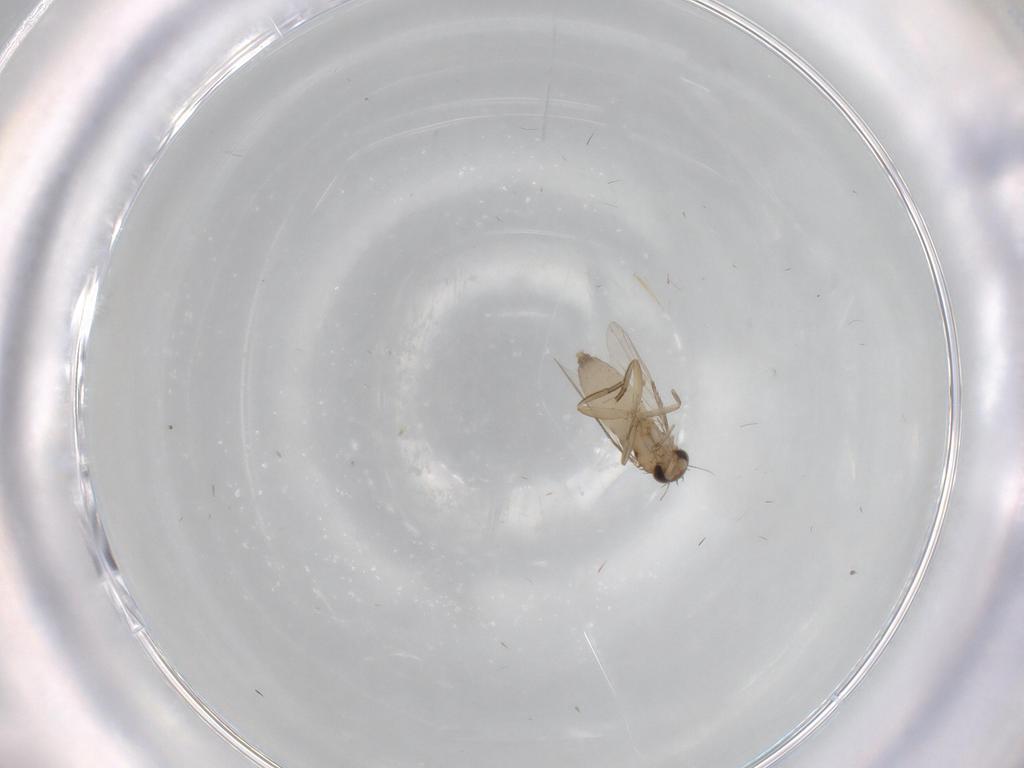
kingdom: Animalia
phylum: Arthropoda
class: Insecta
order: Diptera
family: Phoridae
